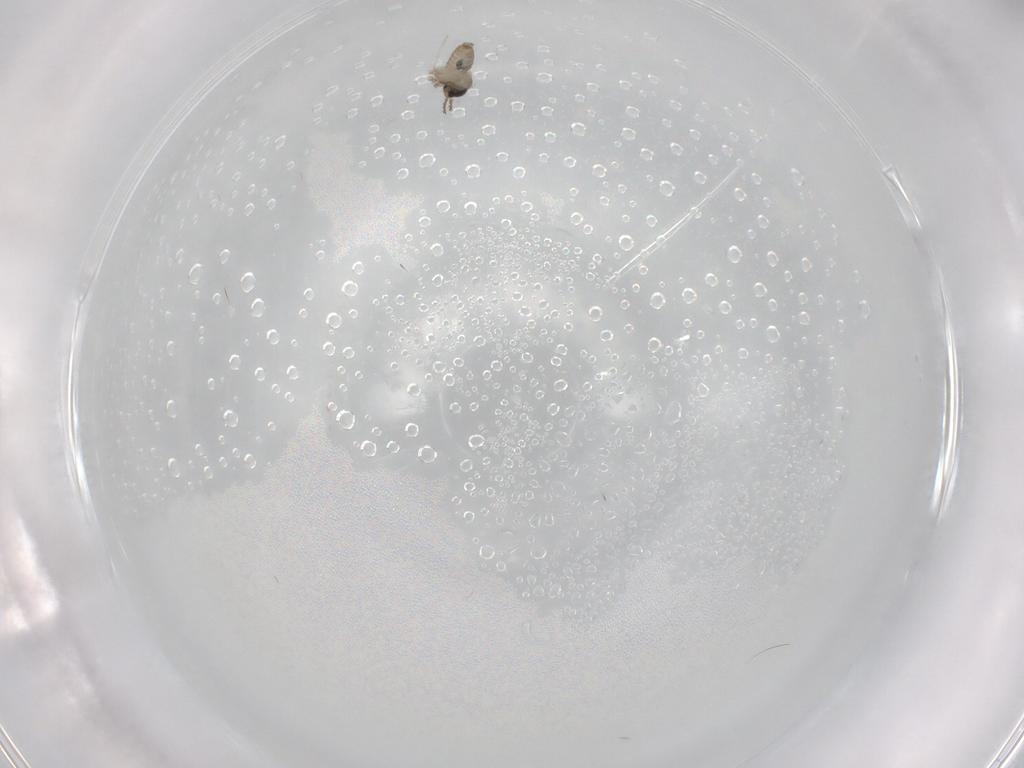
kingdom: Animalia
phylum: Arthropoda
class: Insecta
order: Diptera
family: Cecidomyiidae
